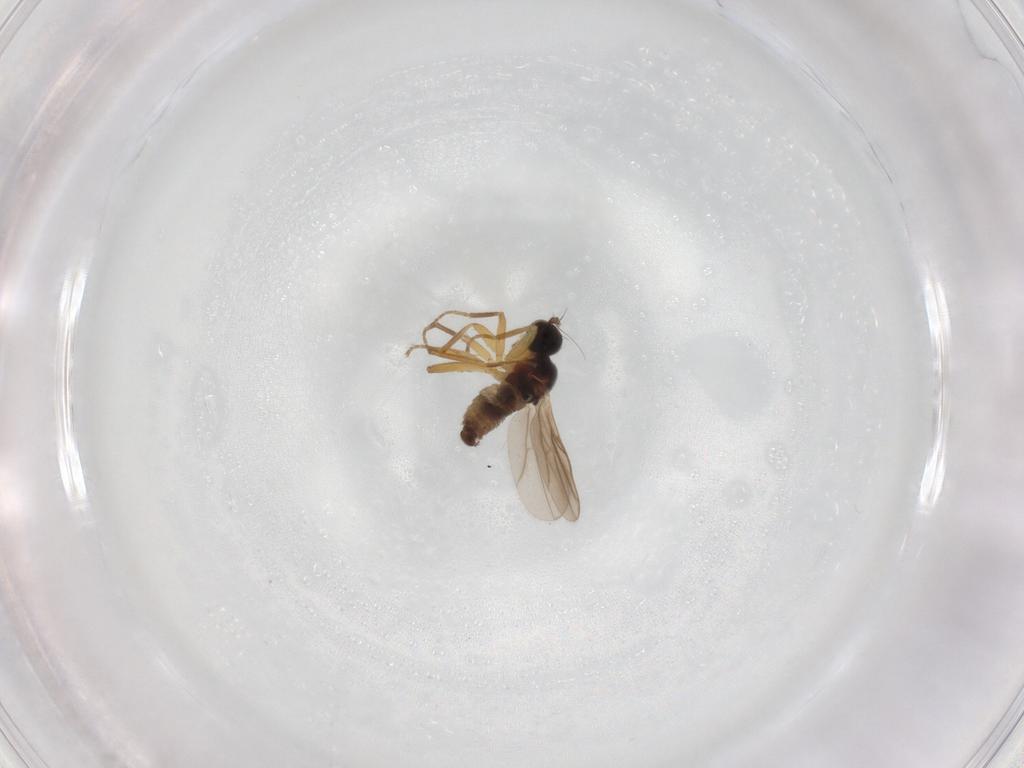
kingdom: Animalia
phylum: Arthropoda
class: Insecta
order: Diptera
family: Hybotidae
